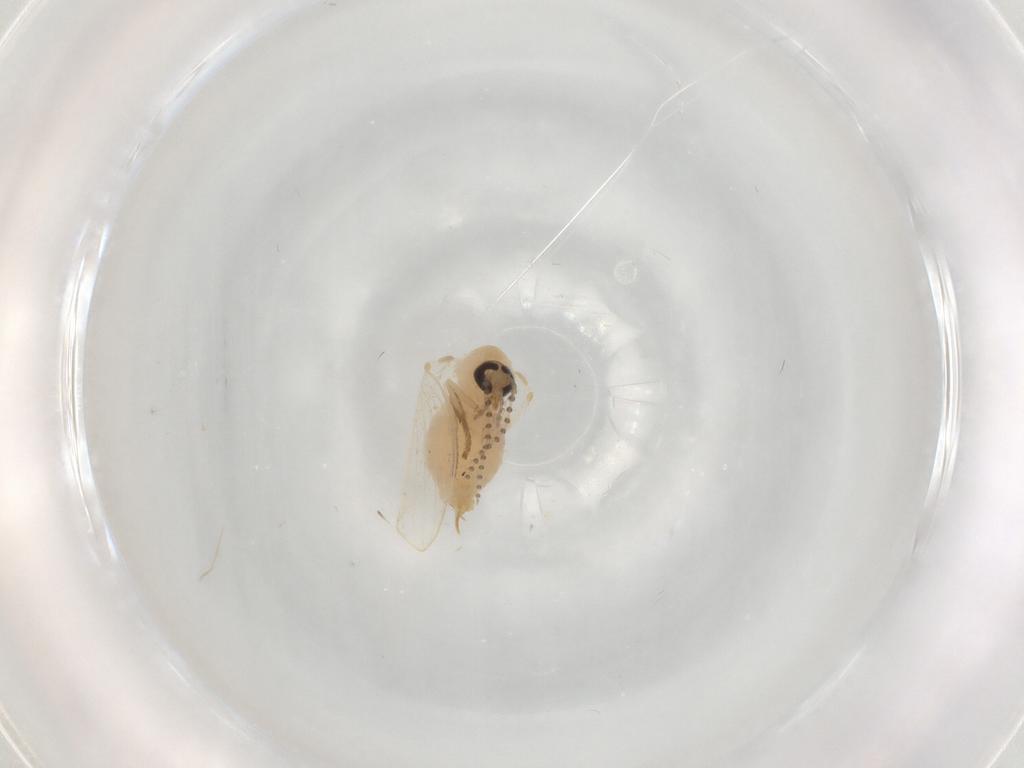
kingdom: Animalia
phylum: Arthropoda
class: Insecta
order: Diptera
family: Psychodidae
